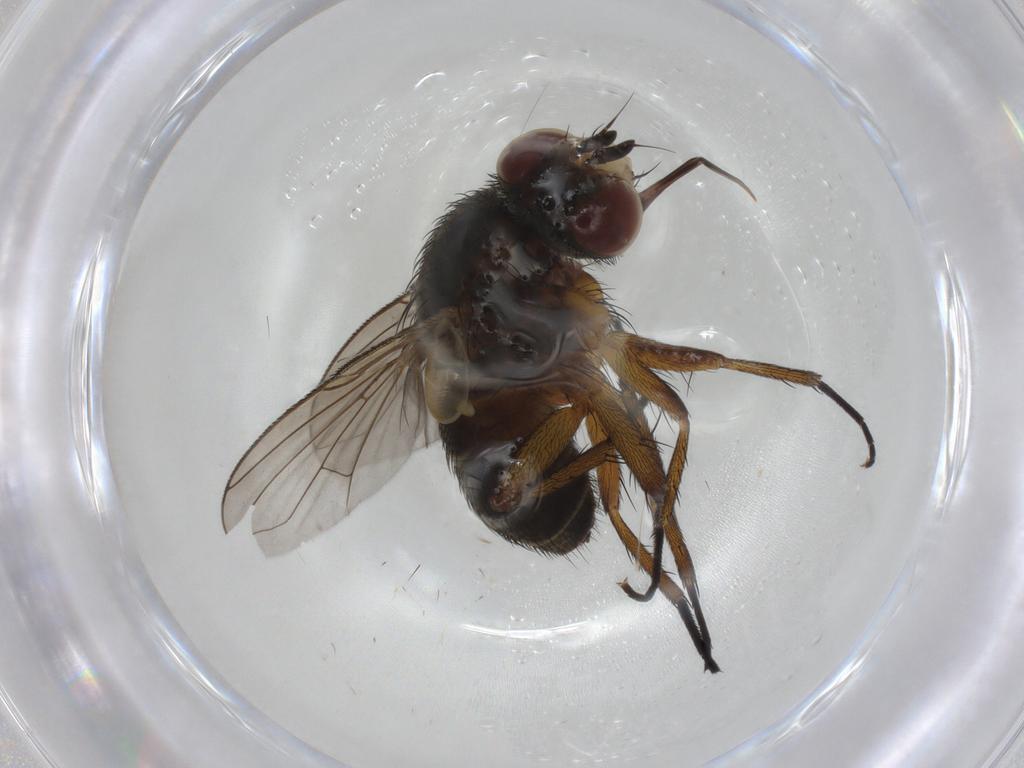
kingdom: Animalia
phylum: Arthropoda
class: Insecta
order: Diptera
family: Tachinidae
